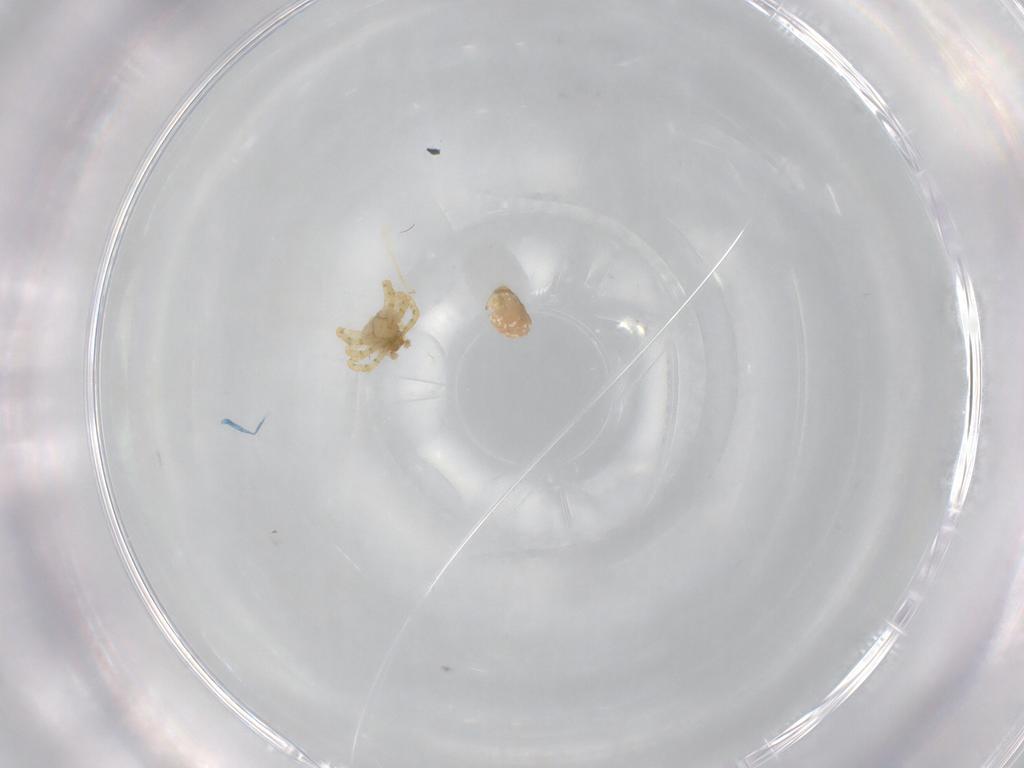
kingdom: Animalia
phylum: Arthropoda
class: Arachnida
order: Araneae
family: Theridiidae
